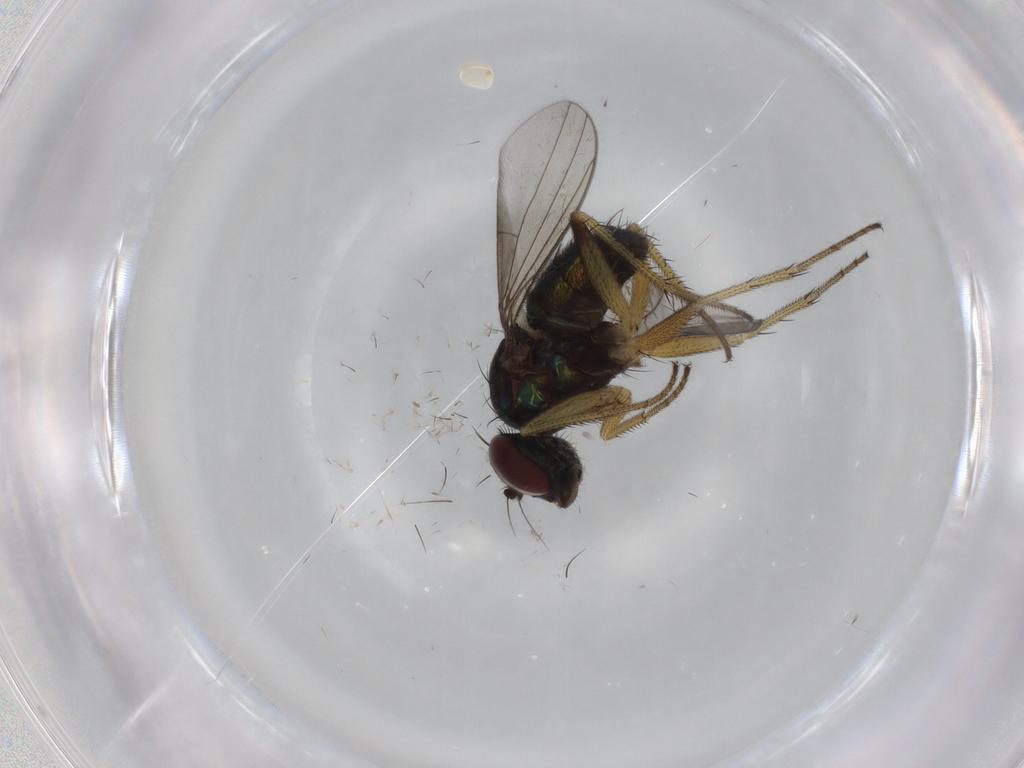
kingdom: Animalia
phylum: Arthropoda
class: Insecta
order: Diptera
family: Dolichopodidae
